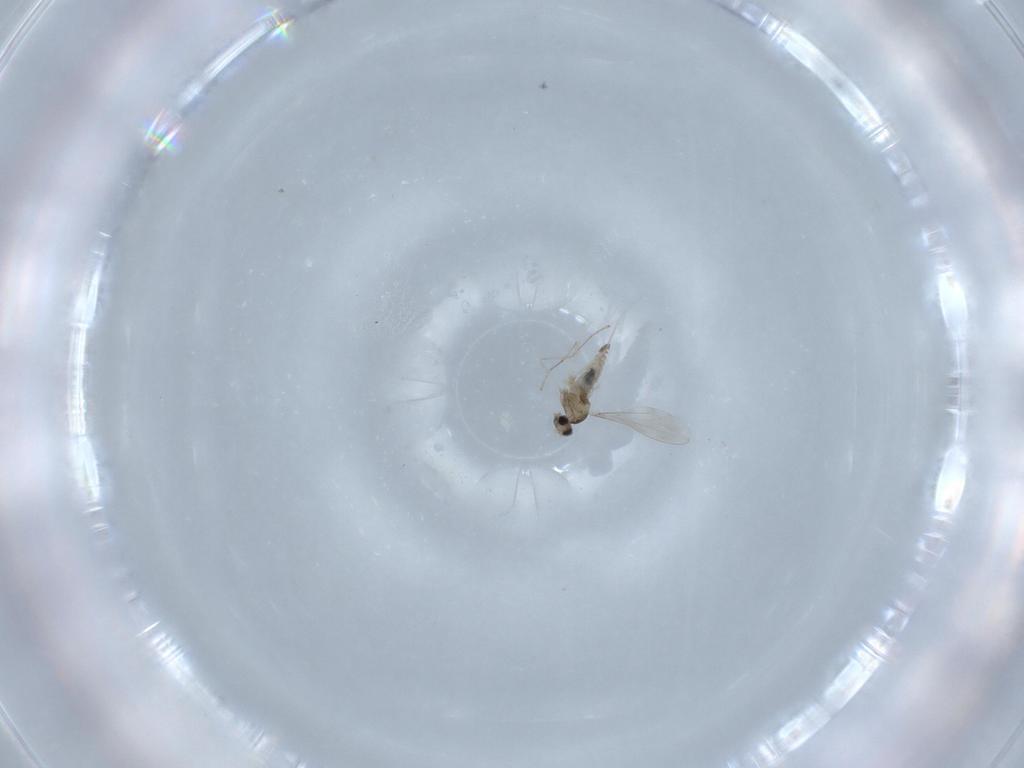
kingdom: Animalia
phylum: Arthropoda
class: Insecta
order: Diptera
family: Cecidomyiidae
